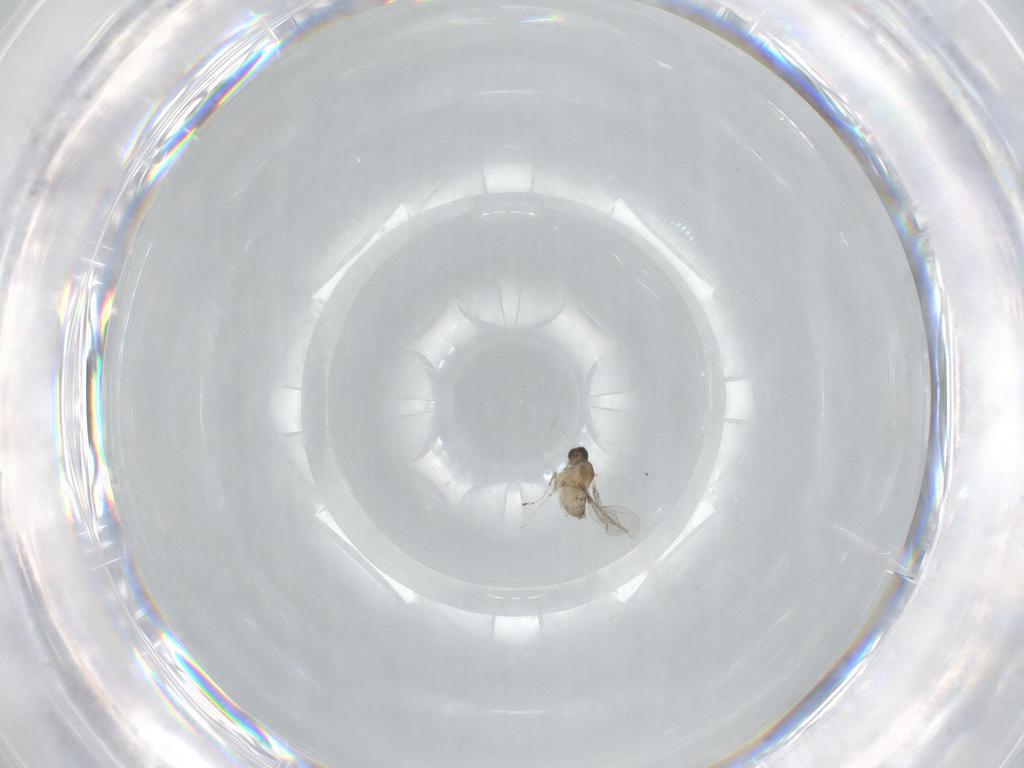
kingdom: Animalia
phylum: Arthropoda
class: Insecta
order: Diptera
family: Cecidomyiidae
